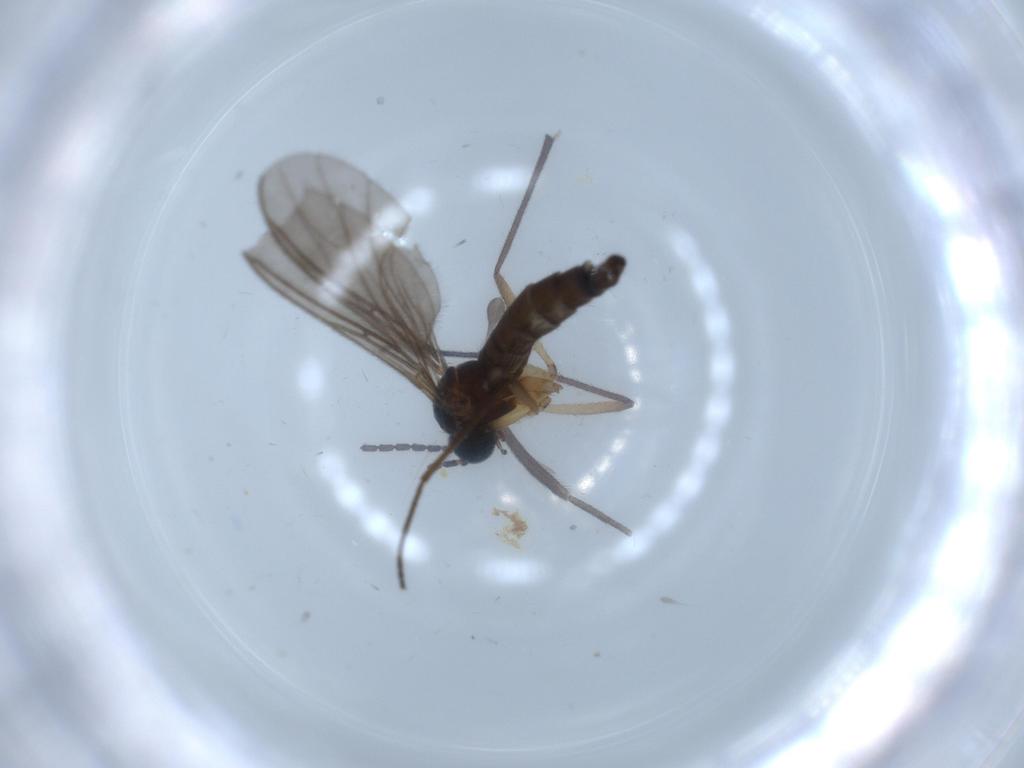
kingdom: Animalia
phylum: Arthropoda
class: Insecta
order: Diptera
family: Sciaridae
